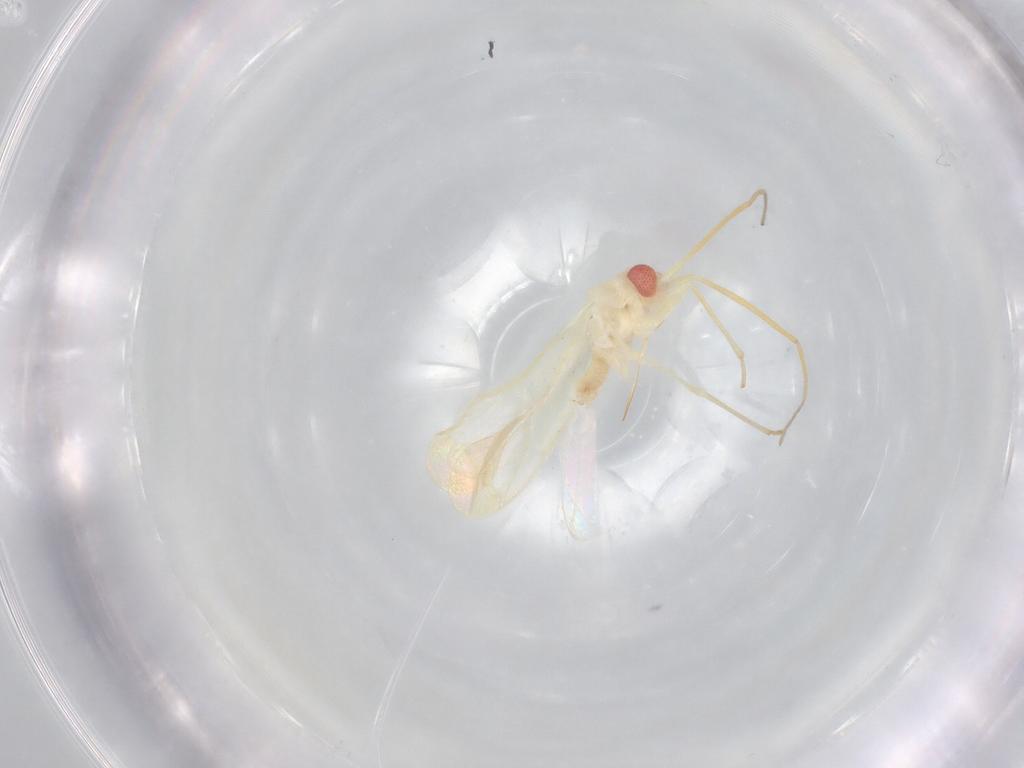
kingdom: Animalia
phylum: Arthropoda
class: Insecta
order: Hemiptera
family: Miridae
